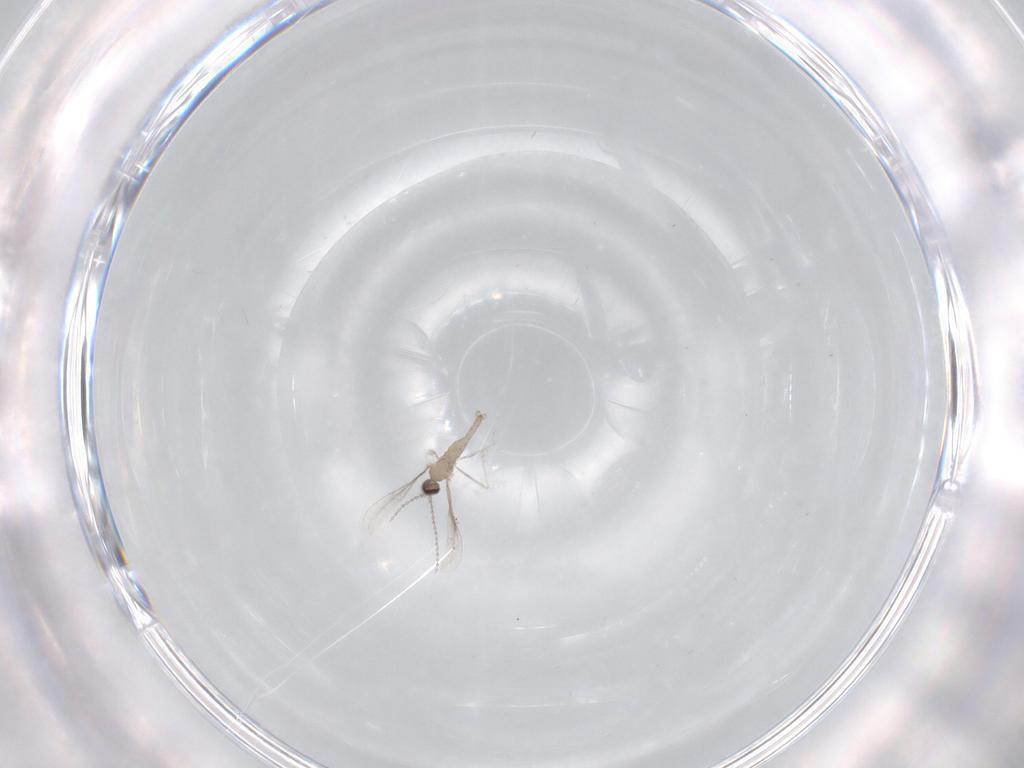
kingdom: Animalia
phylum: Arthropoda
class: Insecta
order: Diptera
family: Cecidomyiidae
